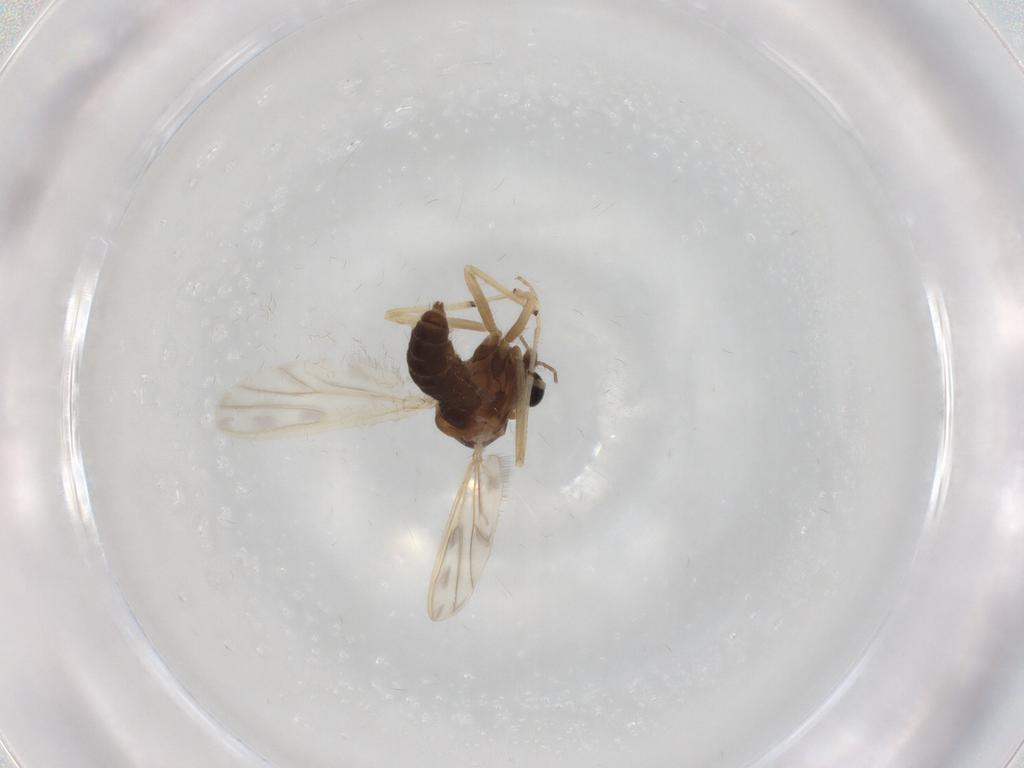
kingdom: Animalia
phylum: Arthropoda
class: Insecta
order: Diptera
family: Chironomidae
